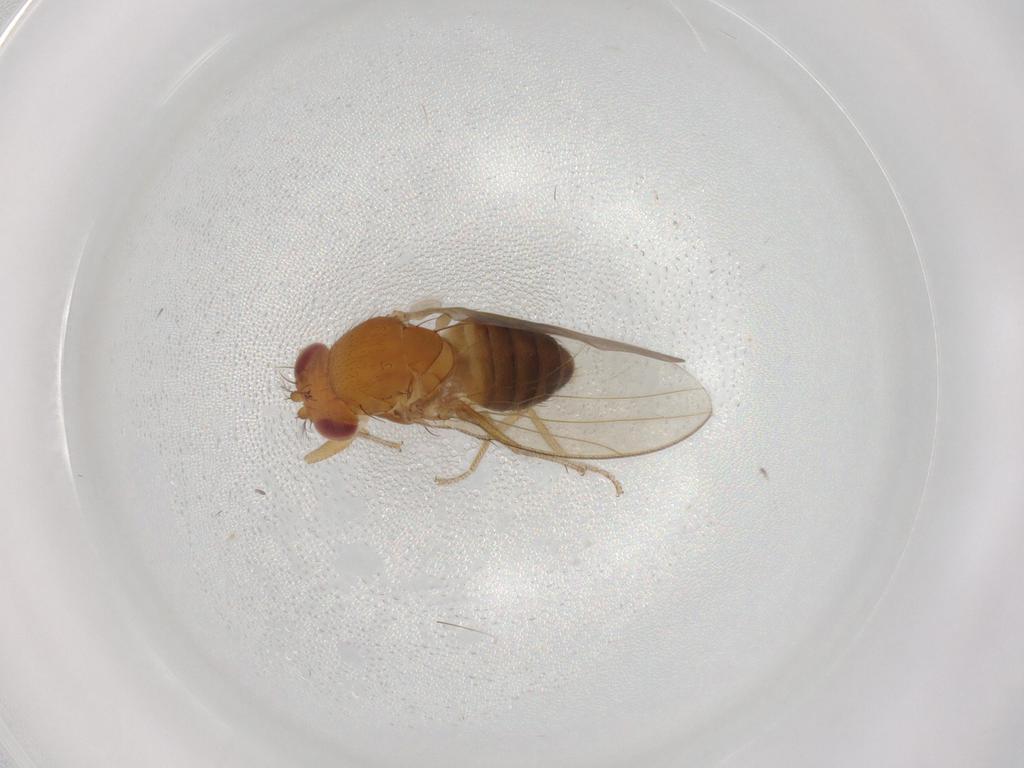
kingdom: Animalia
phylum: Arthropoda
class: Insecta
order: Diptera
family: Drosophilidae
